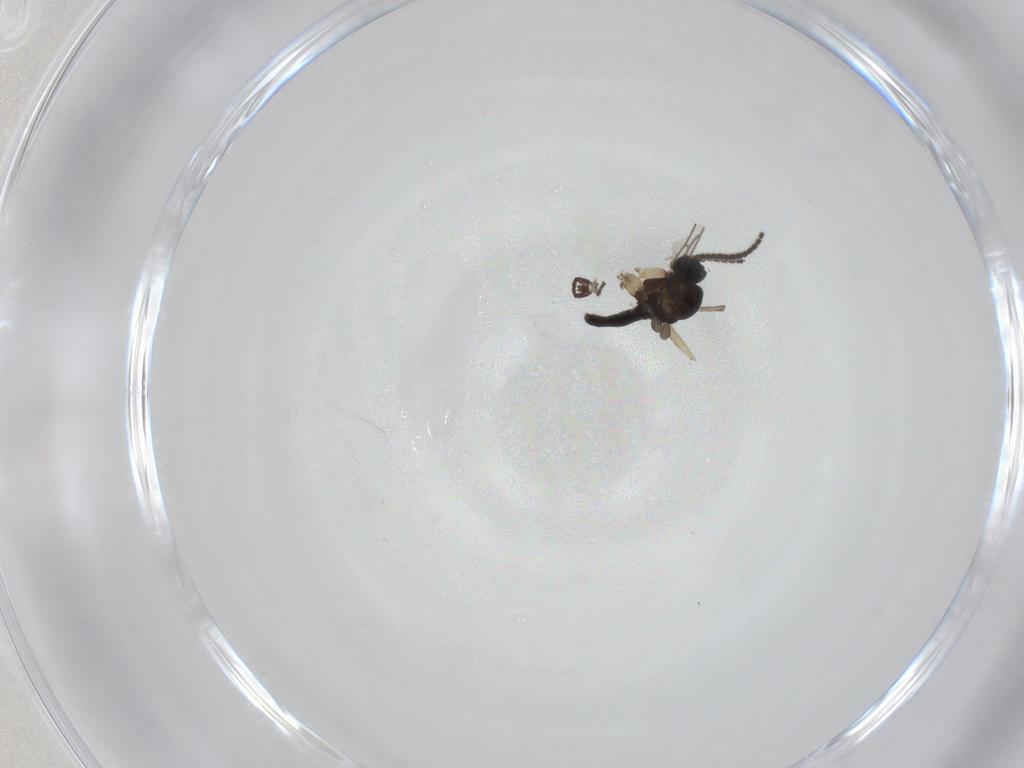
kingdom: Animalia
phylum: Arthropoda
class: Insecta
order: Diptera
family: Sciaridae
